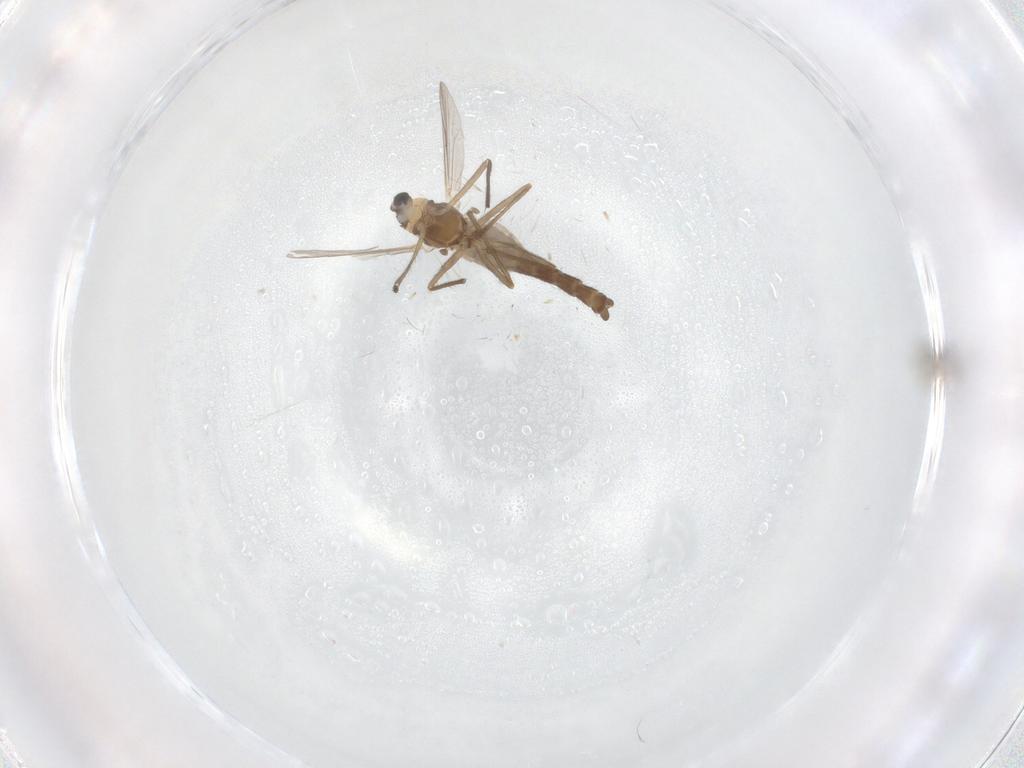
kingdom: Animalia
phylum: Arthropoda
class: Insecta
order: Diptera
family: Chironomidae
